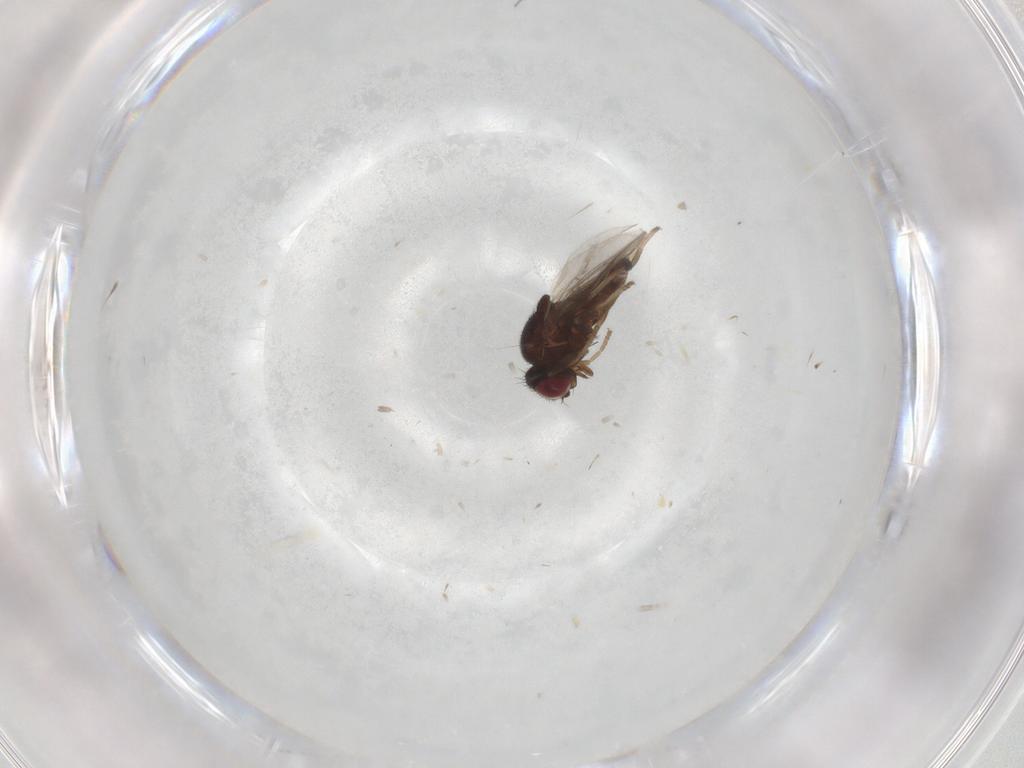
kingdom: Animalia
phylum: Arthropoda
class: Insecta
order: Diptera
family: Chloropidae
